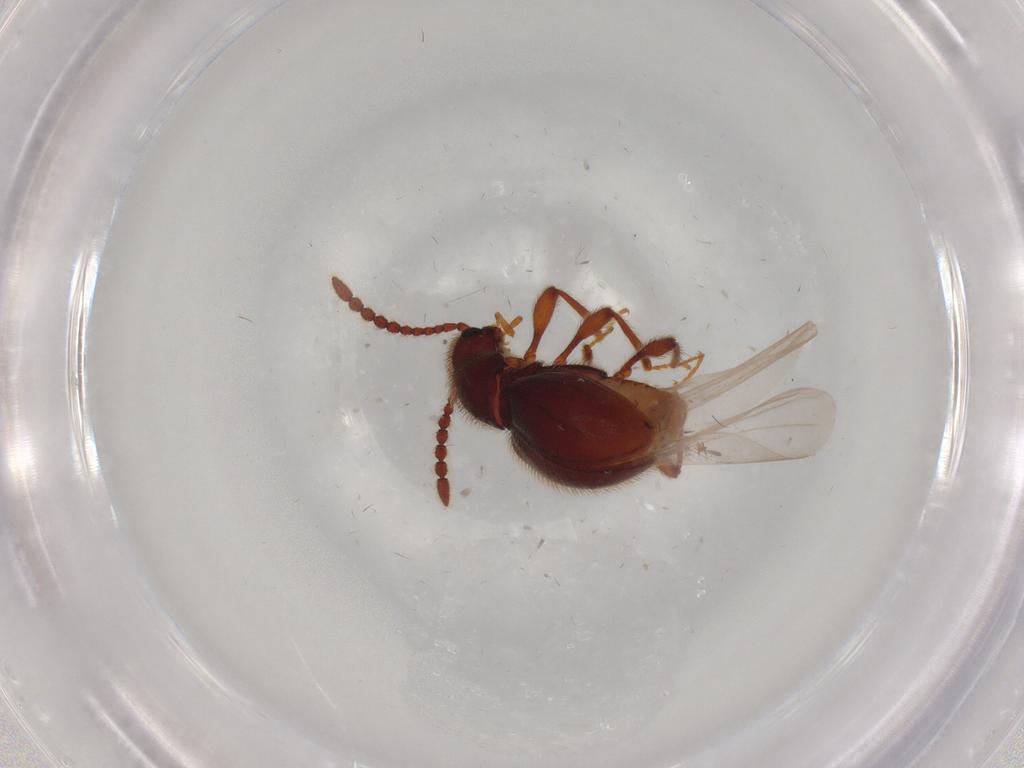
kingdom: Animalia
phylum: Arthropoda
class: Insecta
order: Coleoptera
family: Staphylinidae
